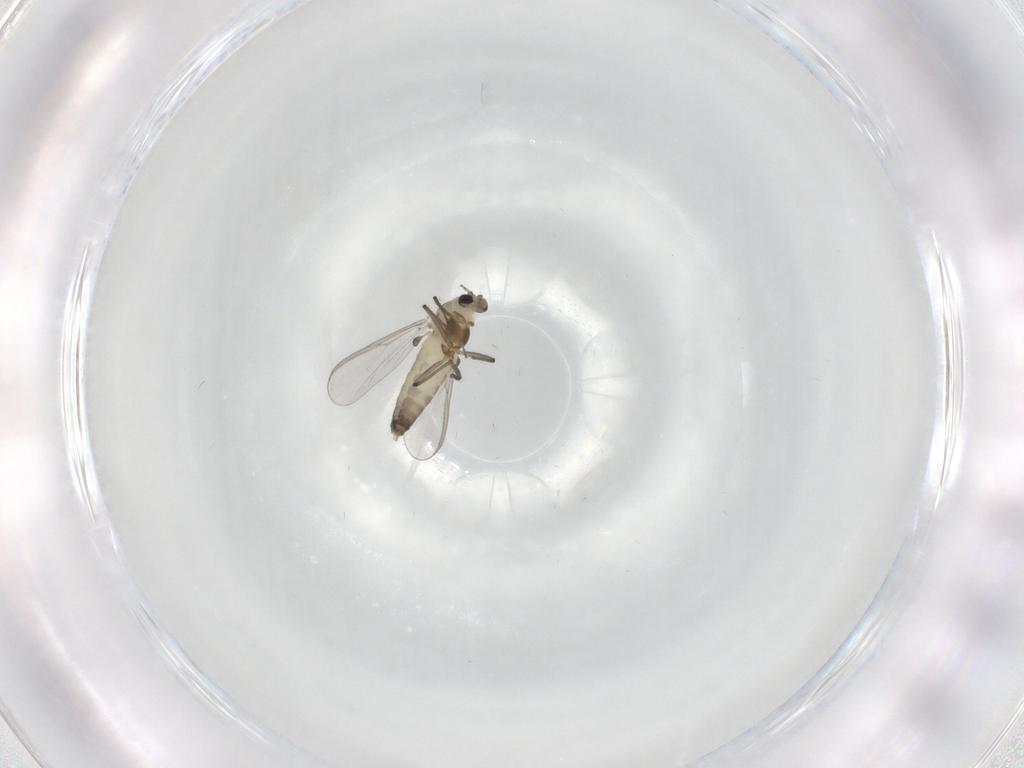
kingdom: Animalia
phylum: Arthropoda
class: Insecta
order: Diptera
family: Chironomidae
